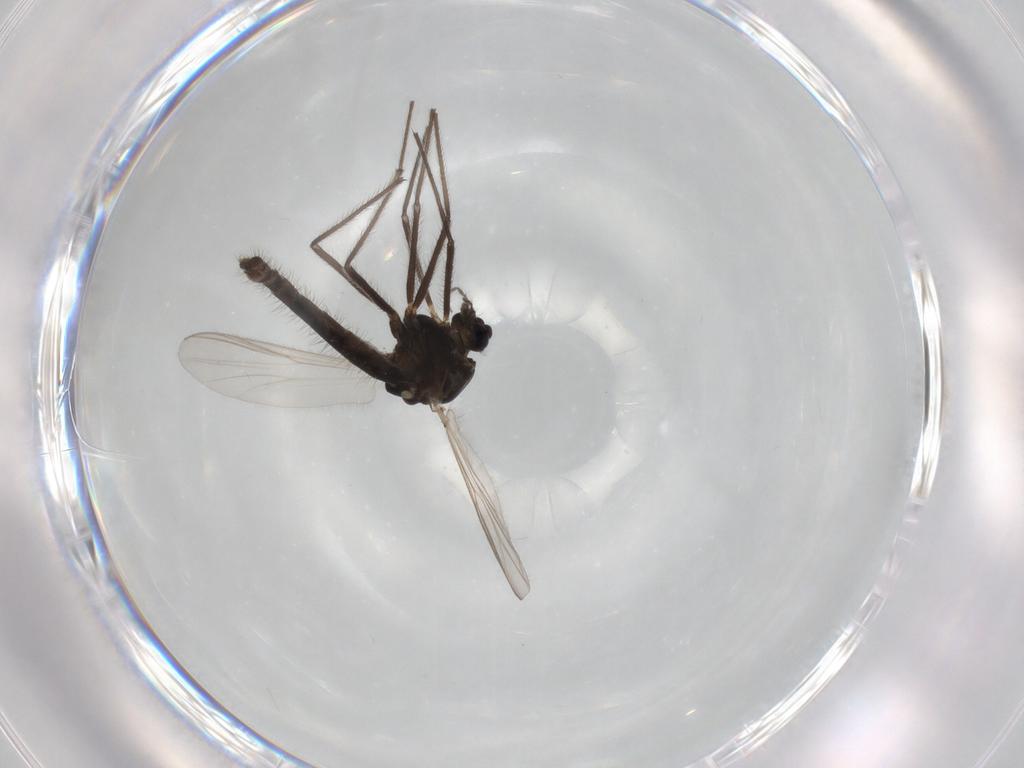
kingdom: Animalia
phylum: Arthropoda
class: Insecta
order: Diptera
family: Chironomidae
